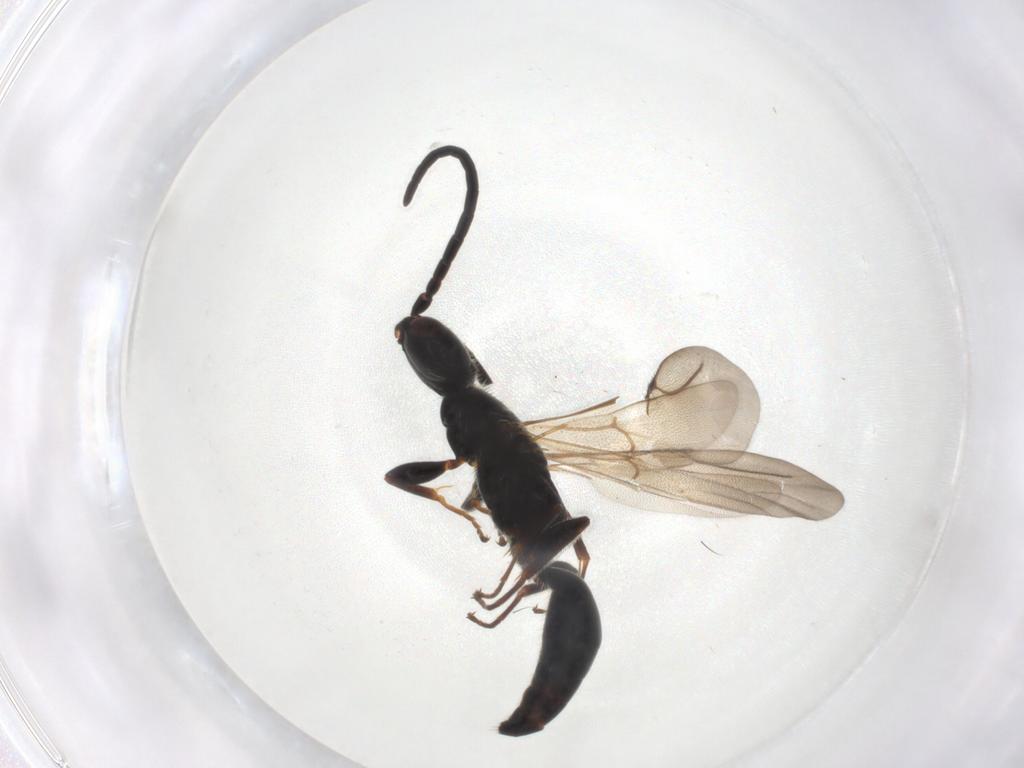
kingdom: Animalia
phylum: Arthropoda
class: Insecta
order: Hymenoptera
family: Bethylidae
